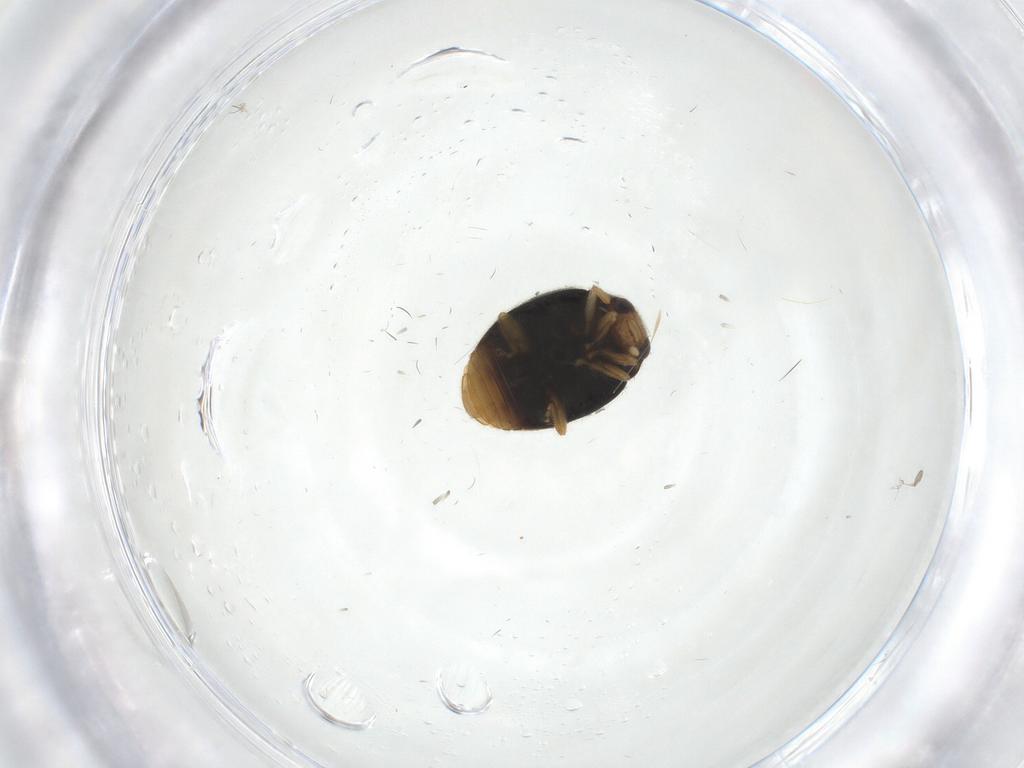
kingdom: Animalia
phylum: Arthropoda
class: Insecta
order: Coleoptera
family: Coccinellidae
